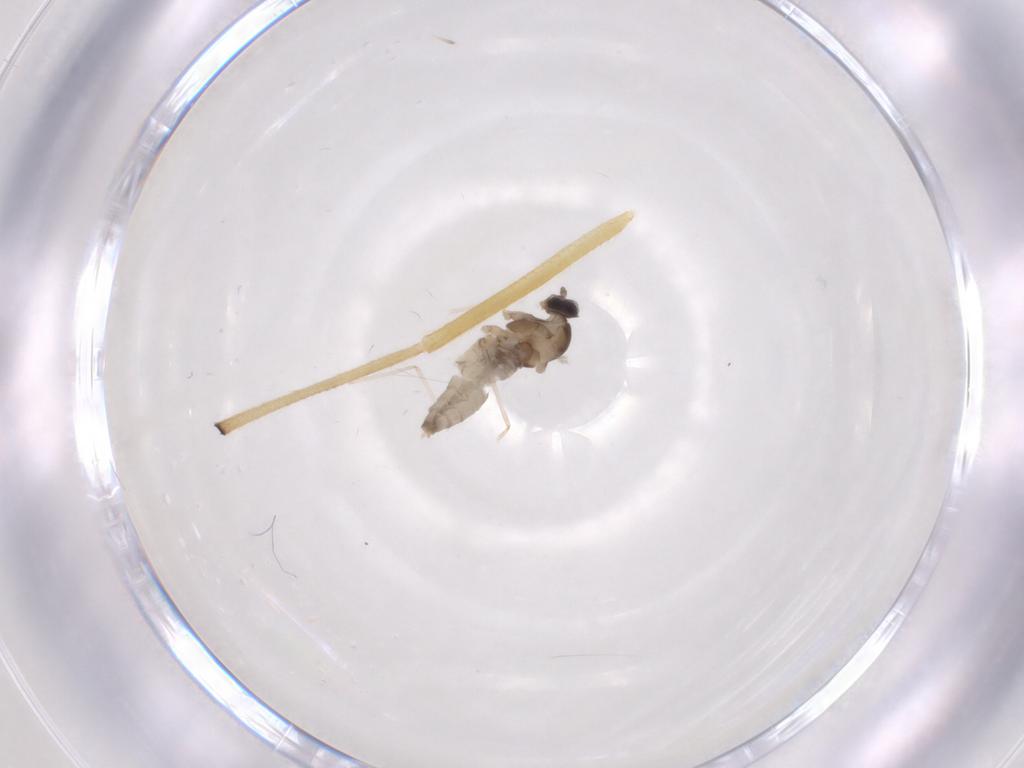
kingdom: Animalia
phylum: Arthropoda
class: Insecta
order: Diptera
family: Chironomidae
